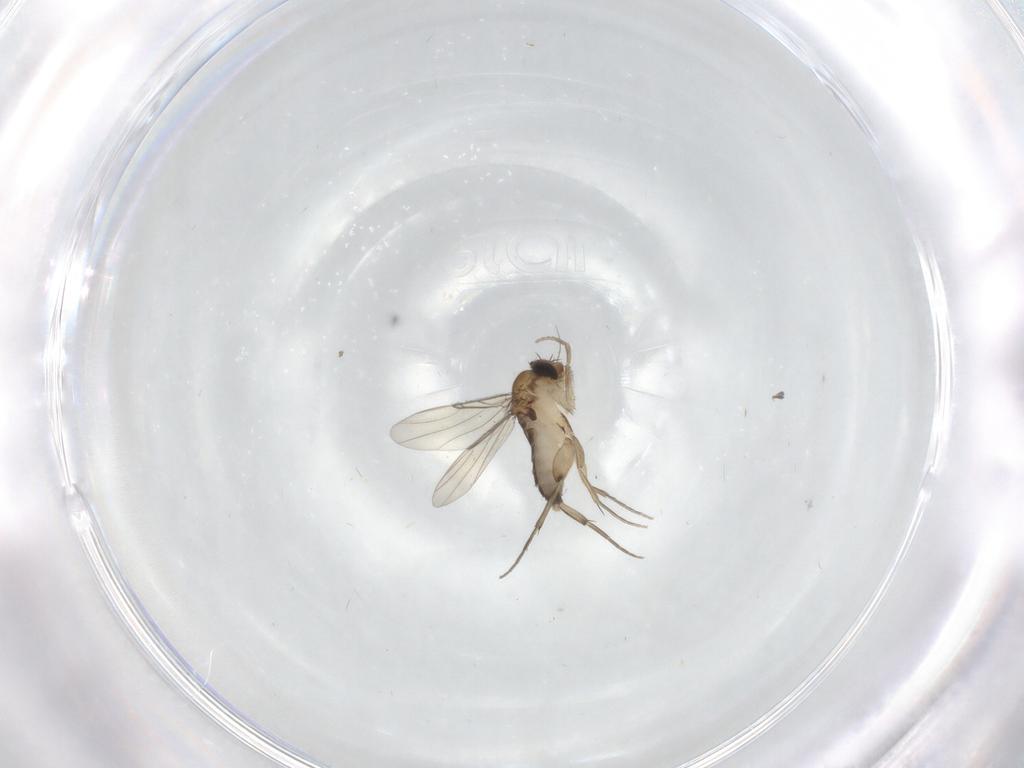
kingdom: Animalia
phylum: Arthropoda
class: Insecta
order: Diptera
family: Phoridae
